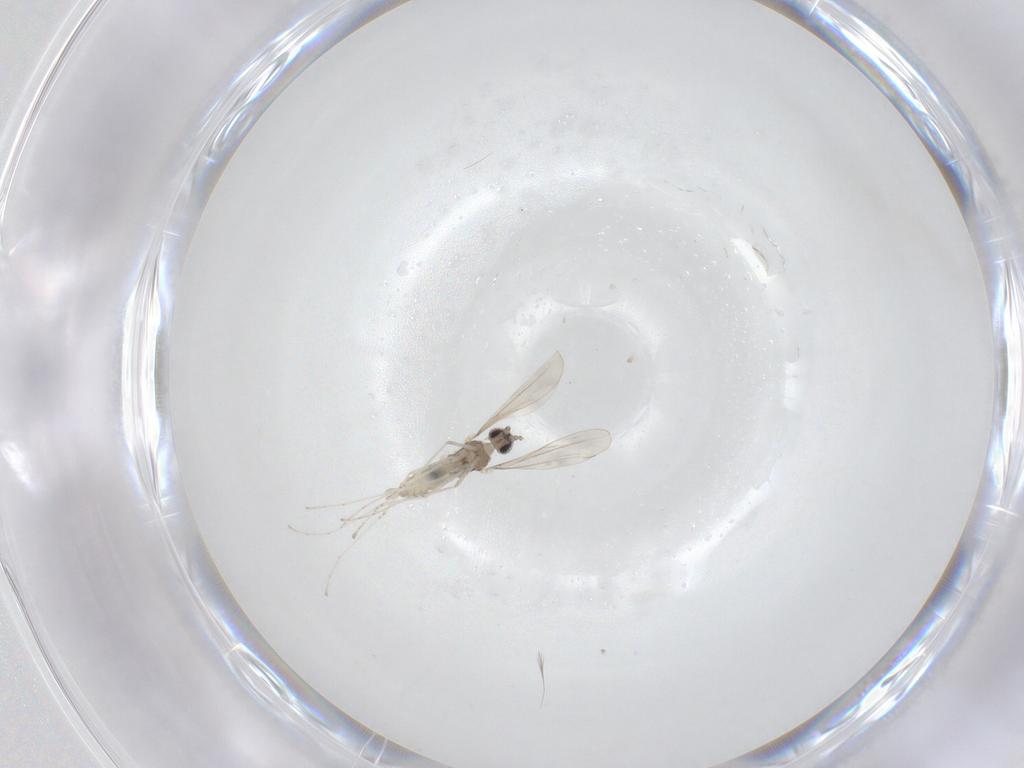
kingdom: Animalia
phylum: Arthropoda
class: Insecta
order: Diptera
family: Cecidomyiidae
